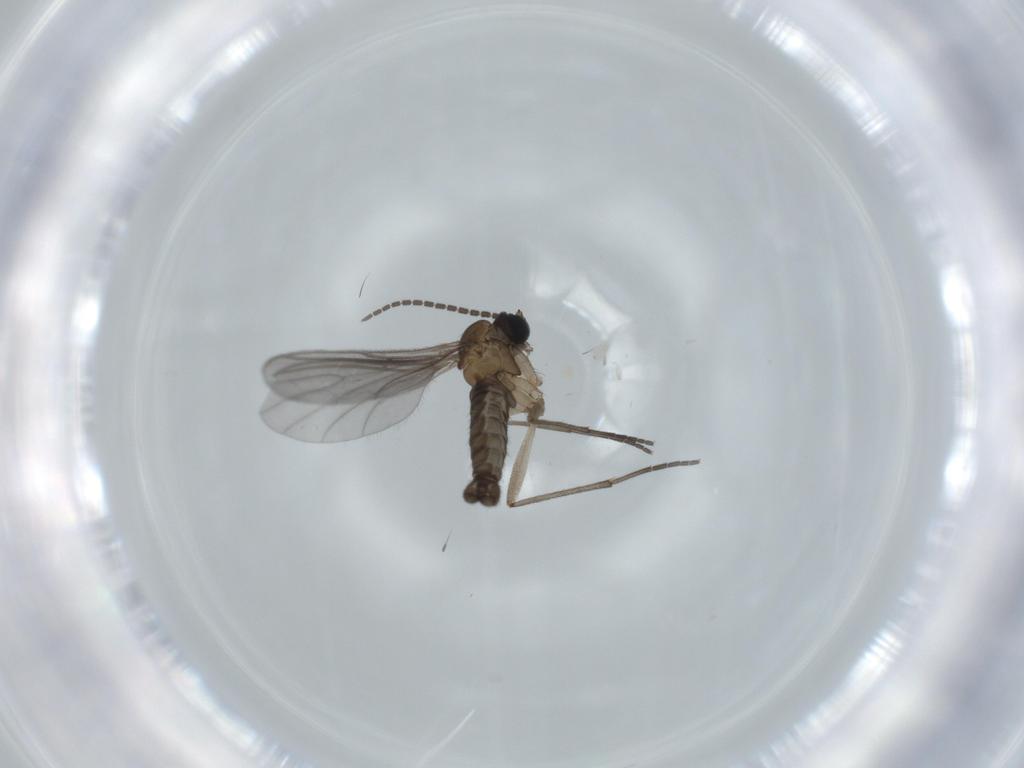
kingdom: Animalia
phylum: Arthropoda
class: Insecta
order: Diptera
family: Sciaridae
